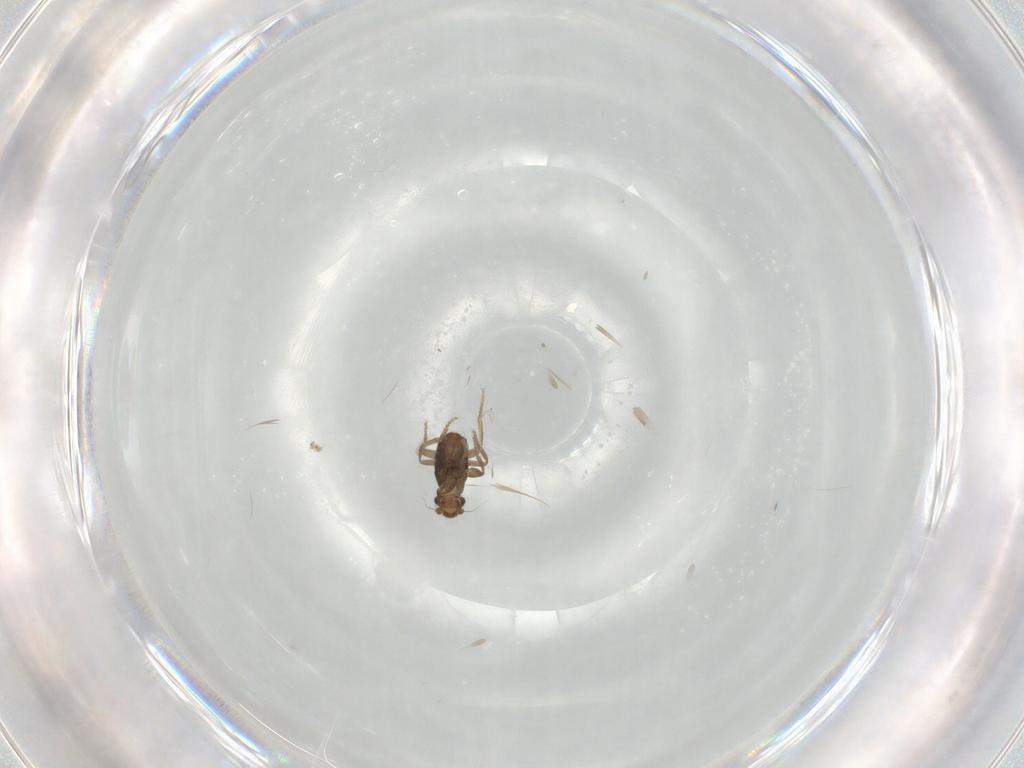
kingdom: Animalia
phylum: Arthropoda
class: Insecta
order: Diptera
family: Phoridae
